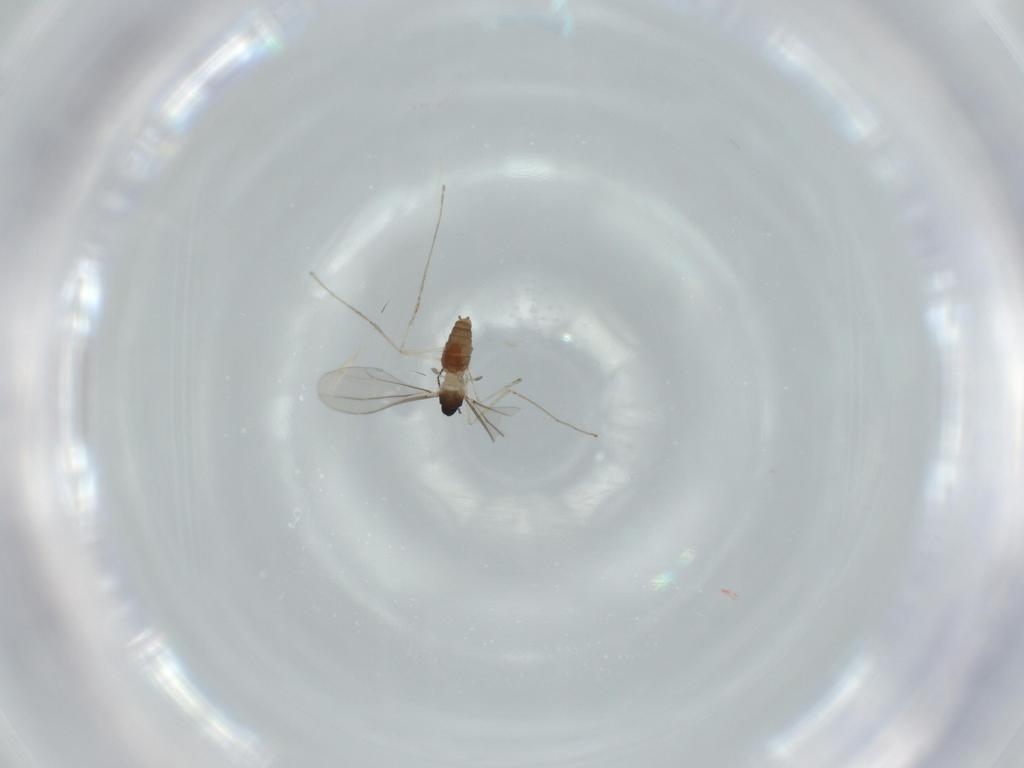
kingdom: Animalia
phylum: Arthropoda
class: Insecta
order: Diptera
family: Cecidomyiidae
